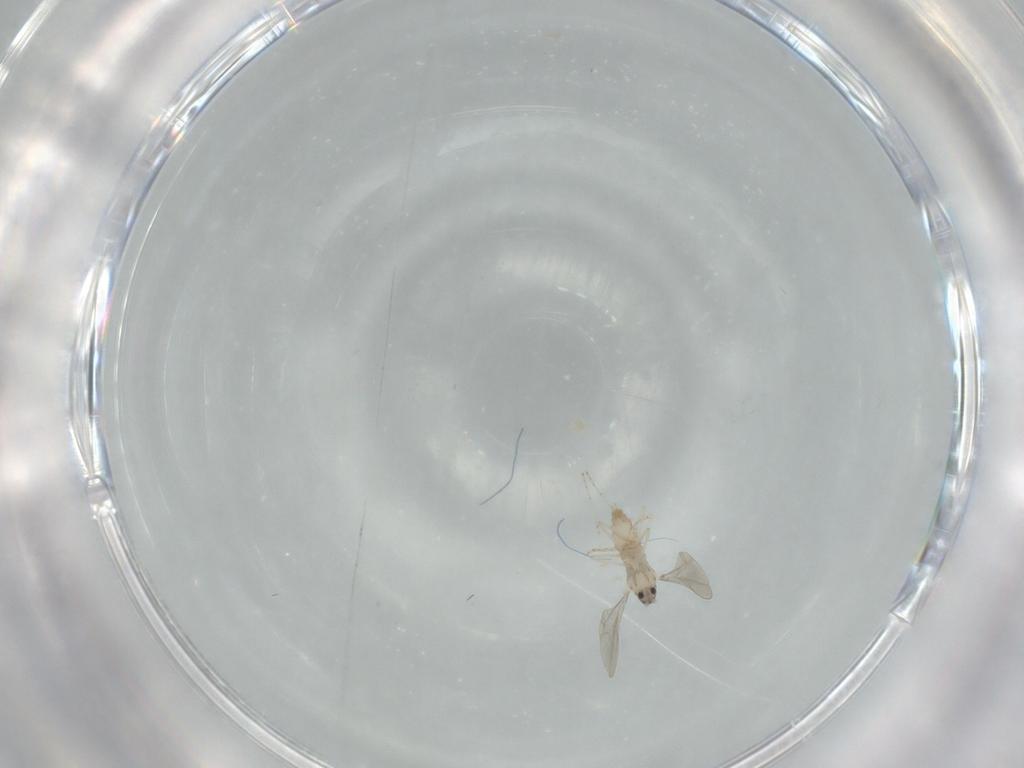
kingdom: Animalia
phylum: Arthropoda
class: Insecta
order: Diptera
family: Cecidomyiidae
